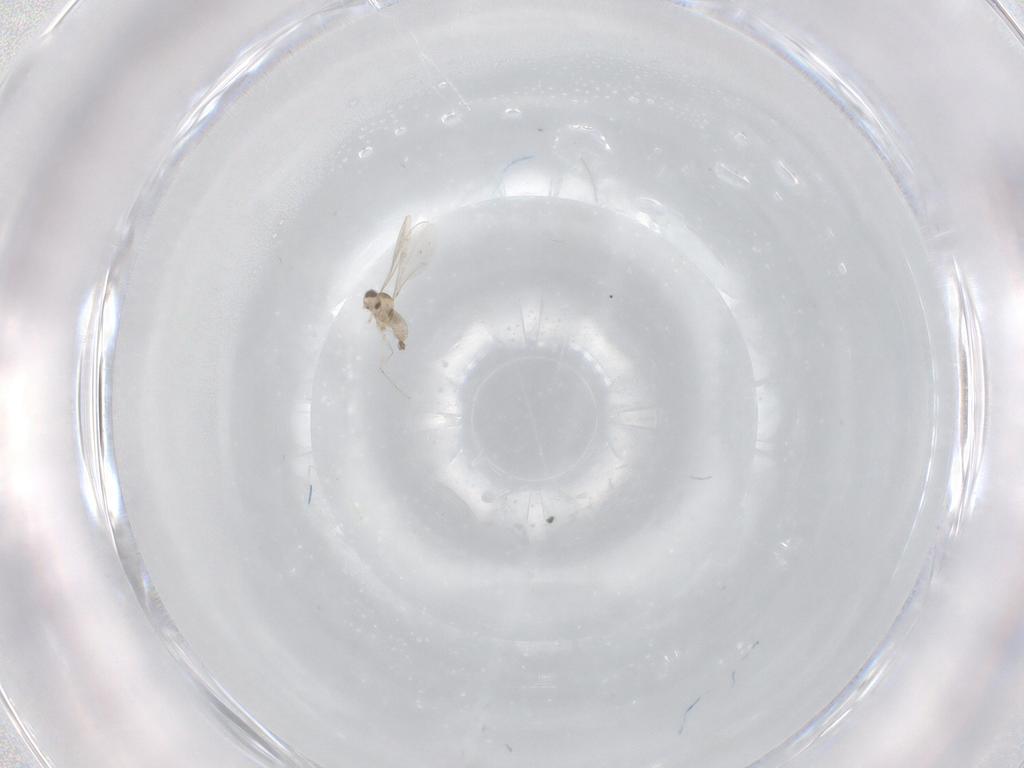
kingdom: Animalia
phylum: Arthropoda
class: Insecta
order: Diptera
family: Cecidomyiidae
